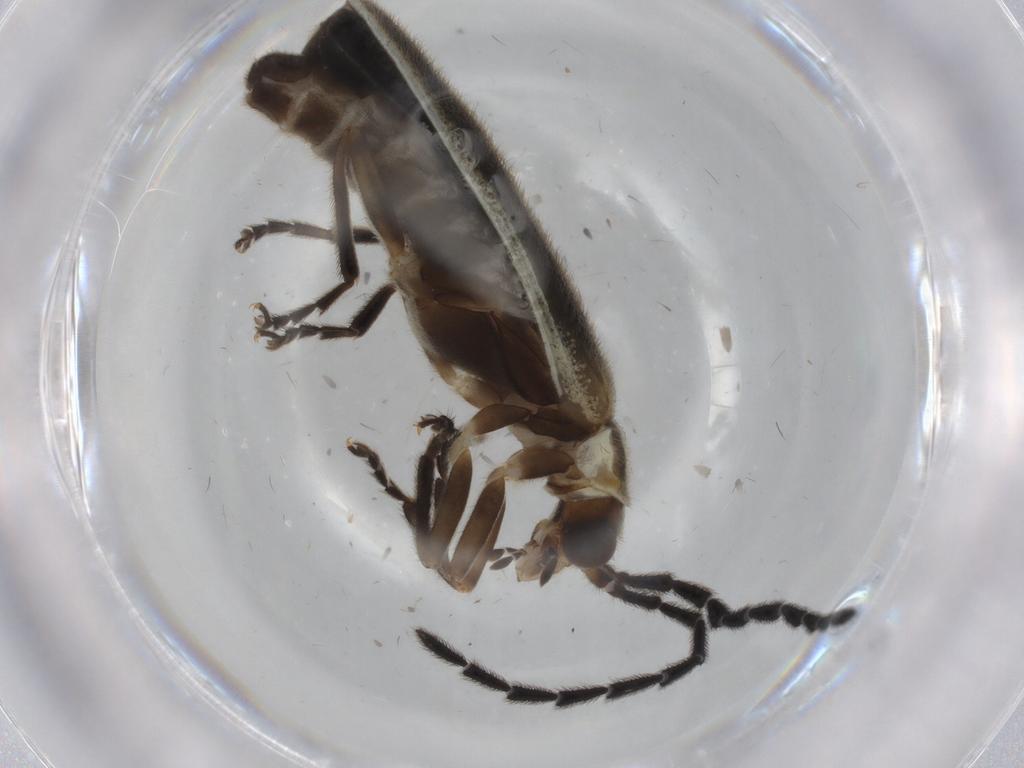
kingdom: Animalia
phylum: Arthropoda
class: Insecta
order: Coleoptera
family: Cantharidae
